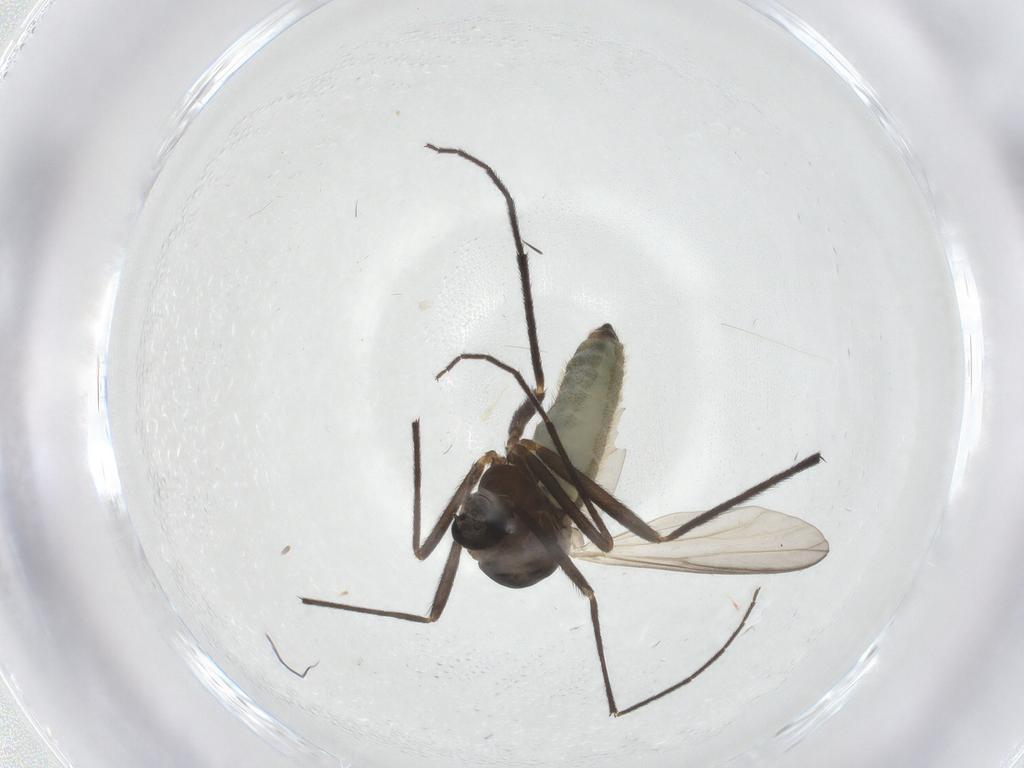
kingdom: Animalia
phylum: Arthropoda
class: Insecta
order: Diptera
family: Chironomidae
